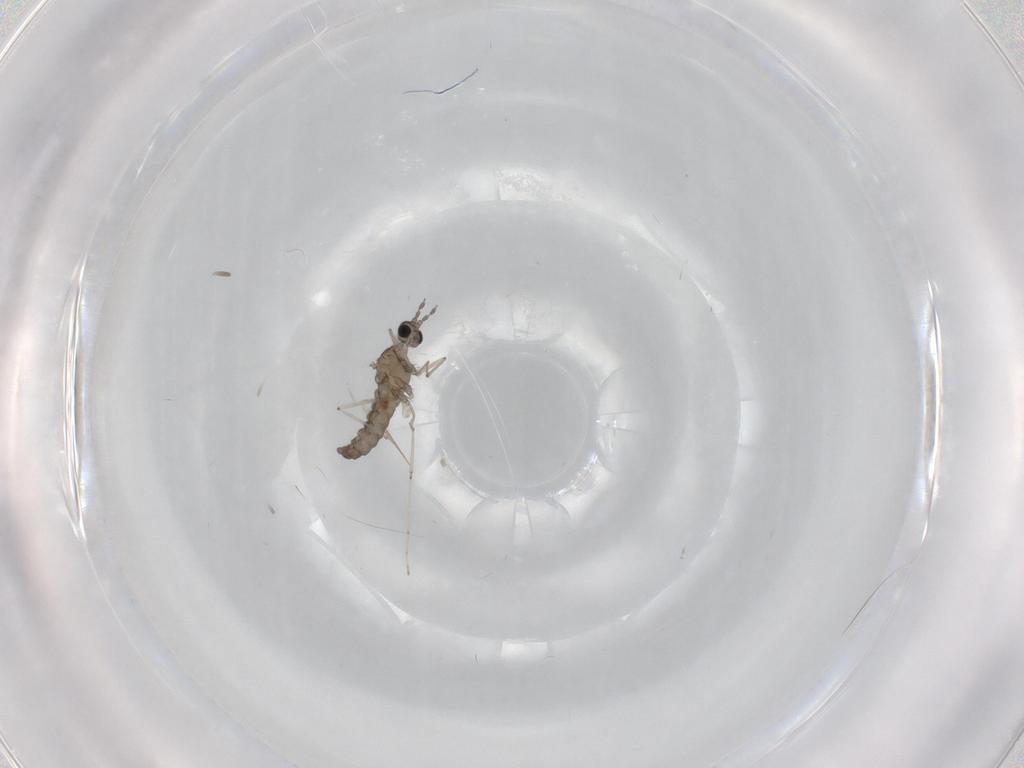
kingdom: Animalia
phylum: Arthropoda
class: Insecta
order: Diptera
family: Cecidomyiidae
